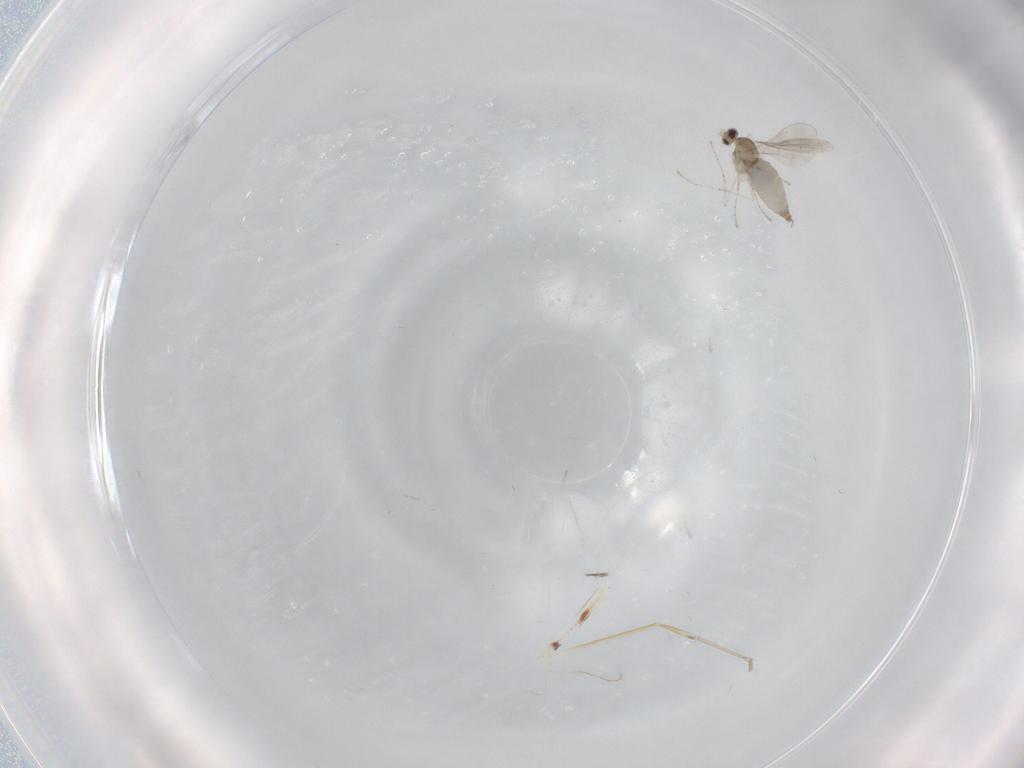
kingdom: Animalia
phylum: Arthropoda
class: Insecta
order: Diptera
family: Cecidomyiidae
